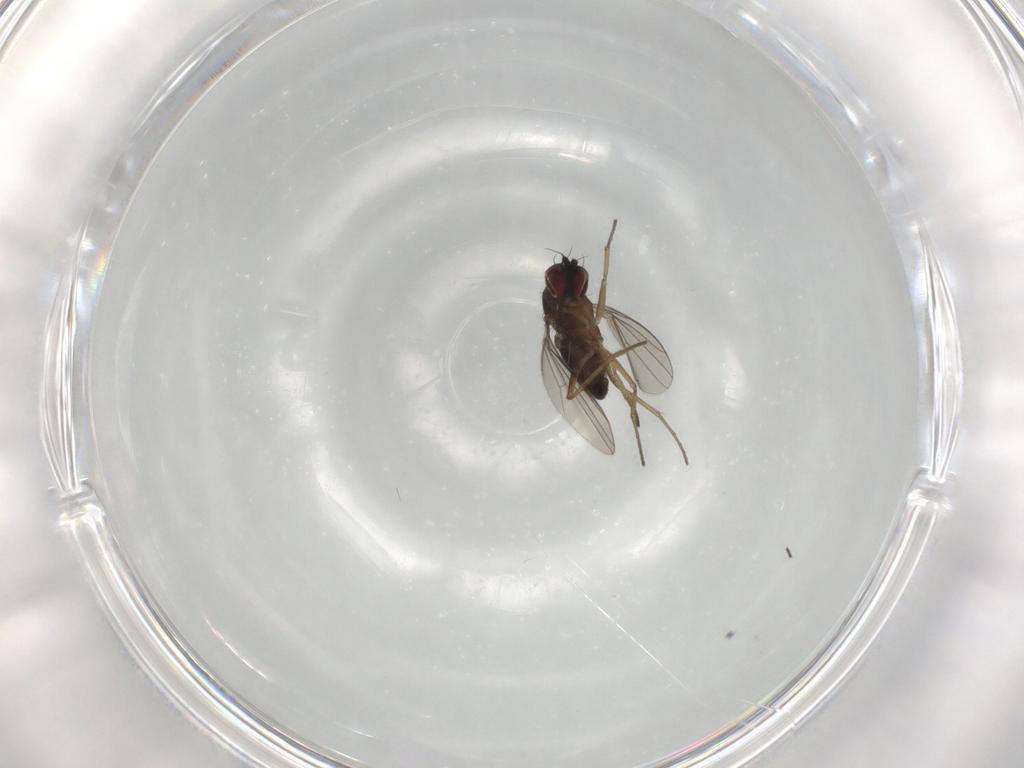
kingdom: Animalia
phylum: Arthropoda
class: Insecta
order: Diptera
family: Dolichopodidae
